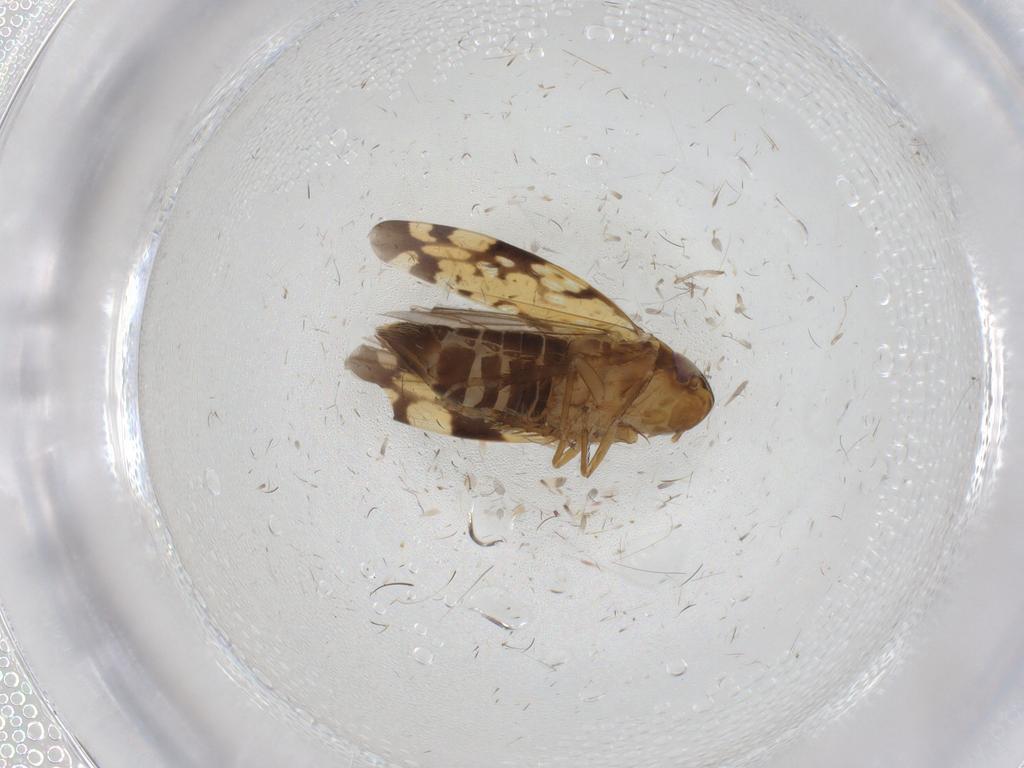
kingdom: Animalia
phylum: Arthropoda
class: Insecta
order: Hemiptera
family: Cicadellidae
